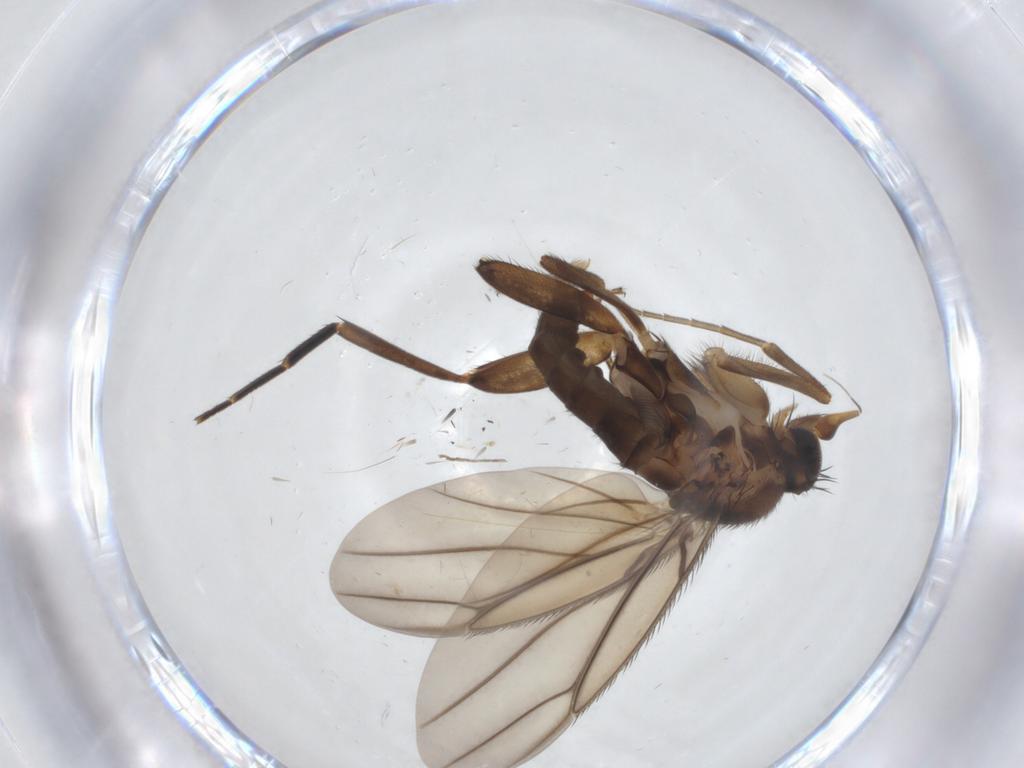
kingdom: Animalia
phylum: Arthropoda
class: Insecta
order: Diptera
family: Phoridae
